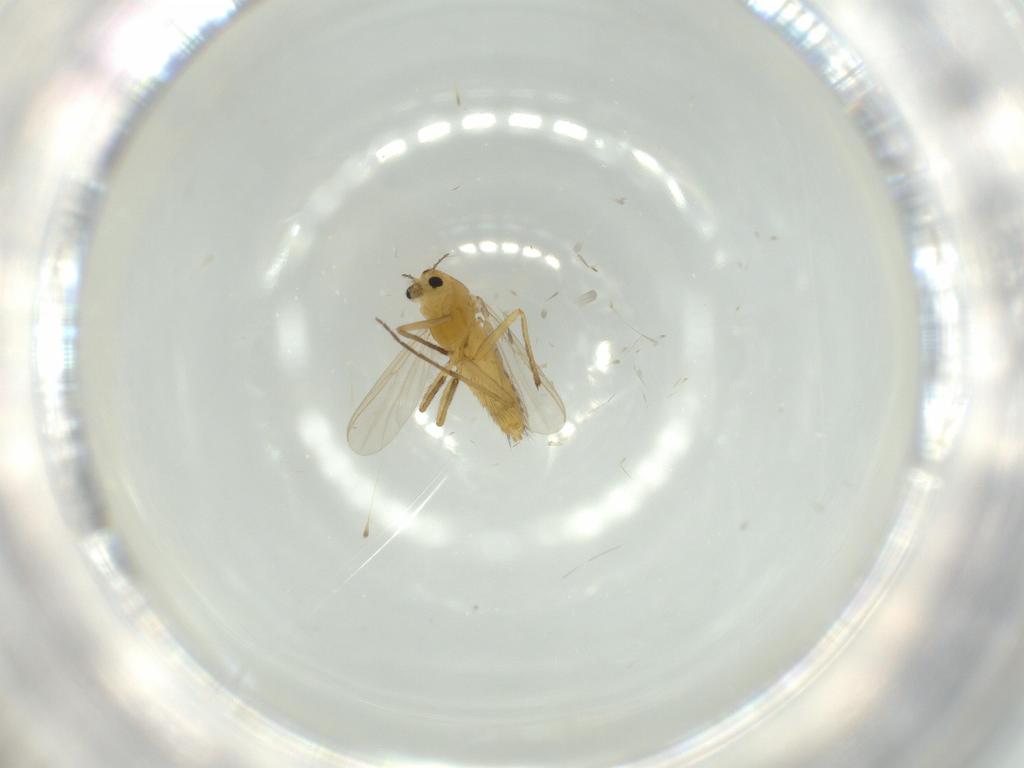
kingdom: Animalia
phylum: Arthropoda
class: Insecta
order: Diptera
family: Chironomidae
